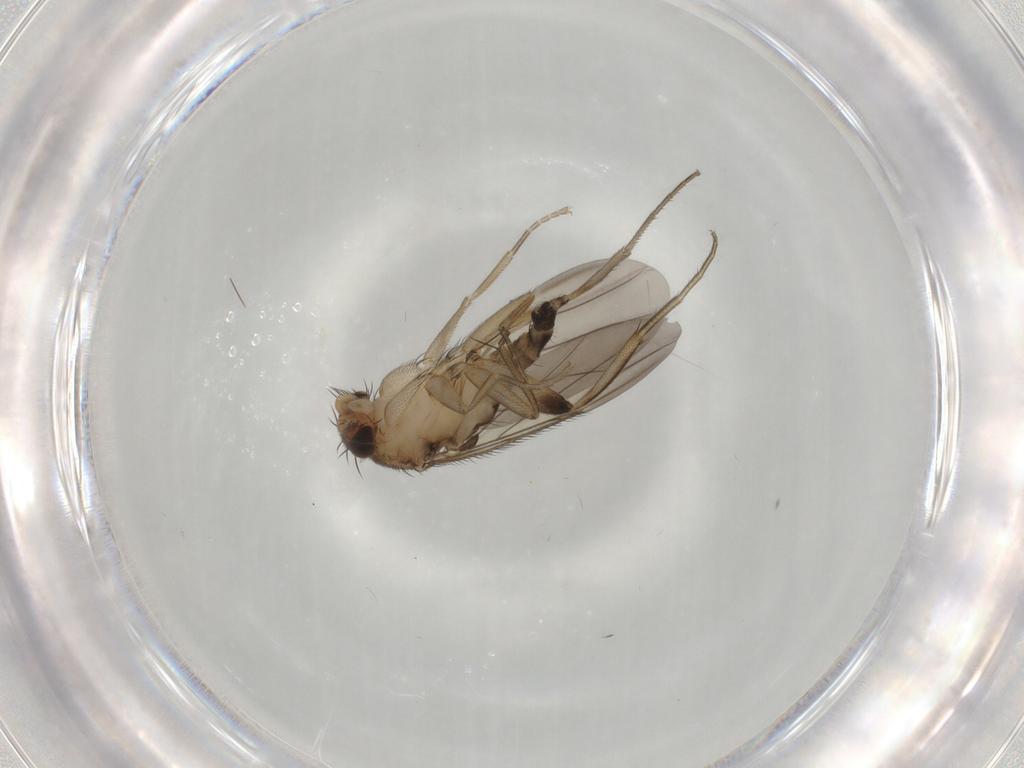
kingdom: Animalia
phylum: Arthropoda
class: Insecta
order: Diptera
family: Phoridae
